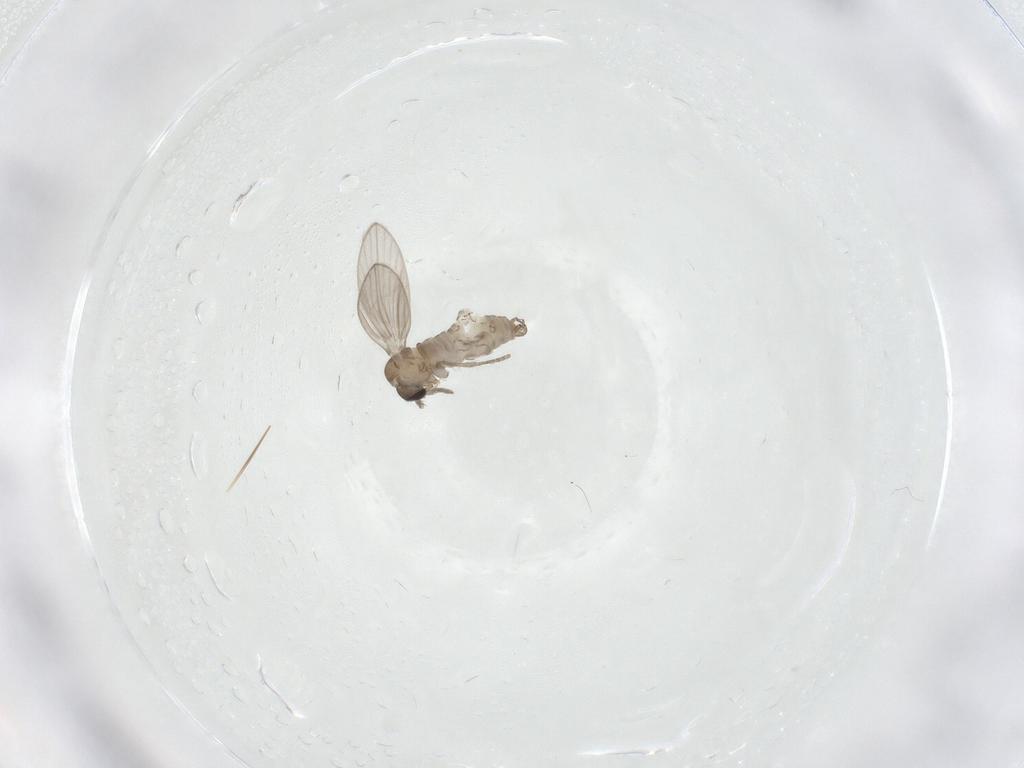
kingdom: Animalia
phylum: Arthropoda
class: Insecta
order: Diptera
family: Psychodidae
